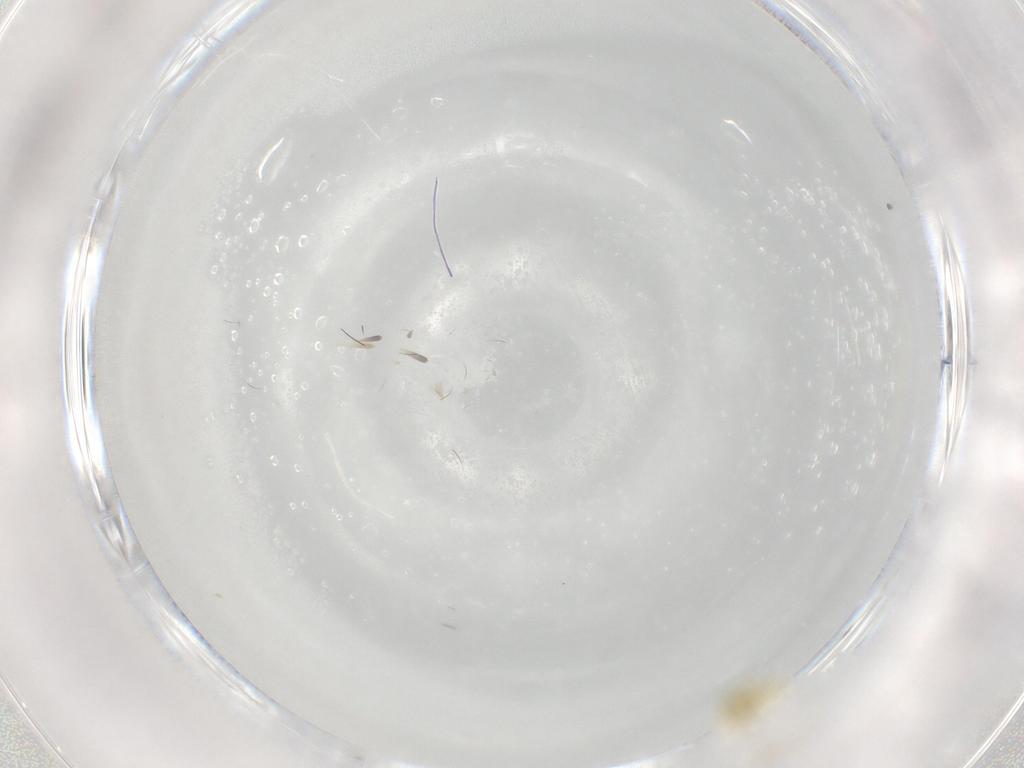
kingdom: Animalia
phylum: Arthropoda
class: Insecta
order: Hemiptera
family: Aleyrodidae
